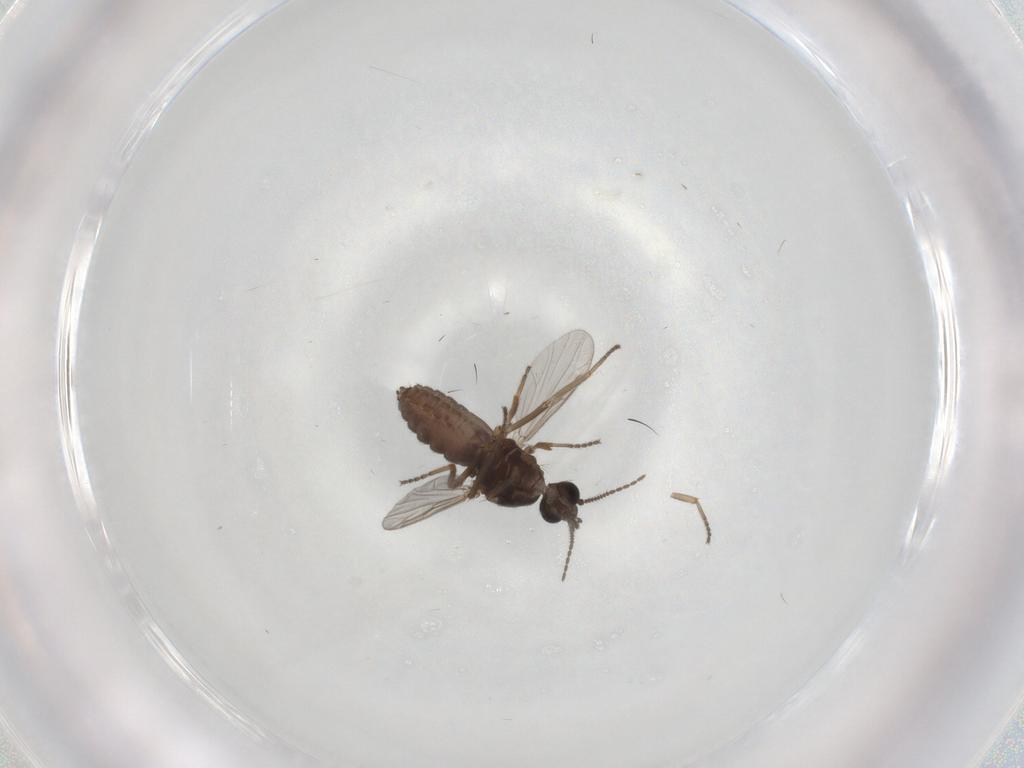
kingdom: Animalia
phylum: Arthropoda
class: Insecta
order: Diptera
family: Ceratopogonidae
